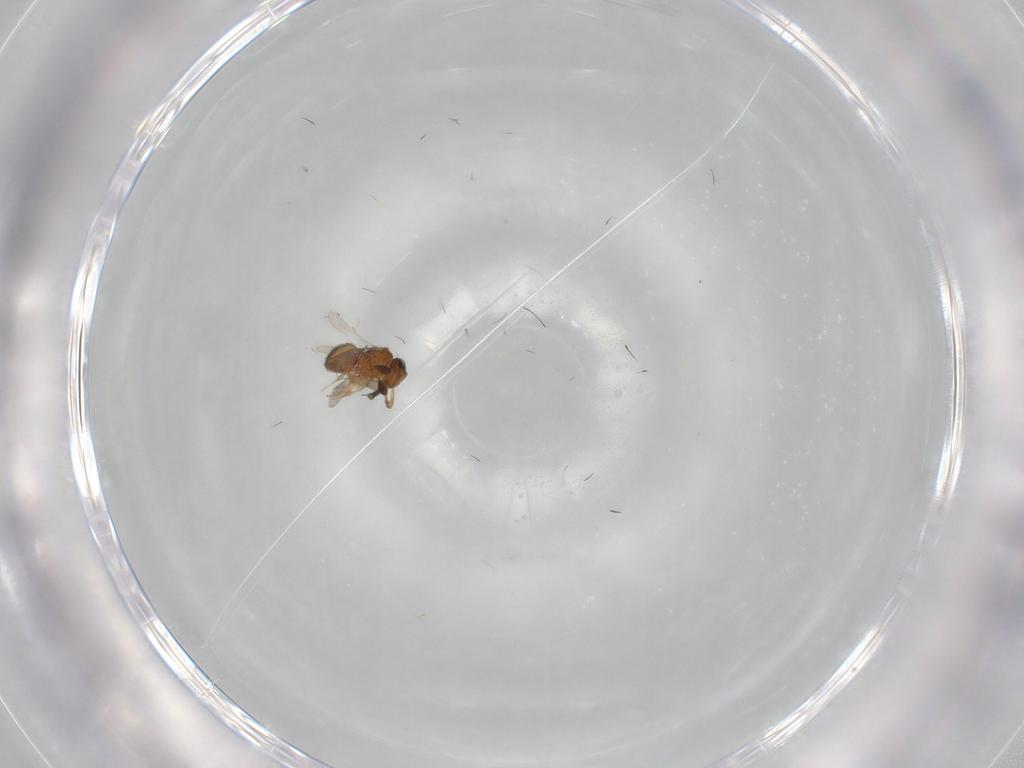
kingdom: Animalia
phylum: Arthropoda
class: Insecta
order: Hymenoptera
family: Scelionidae
